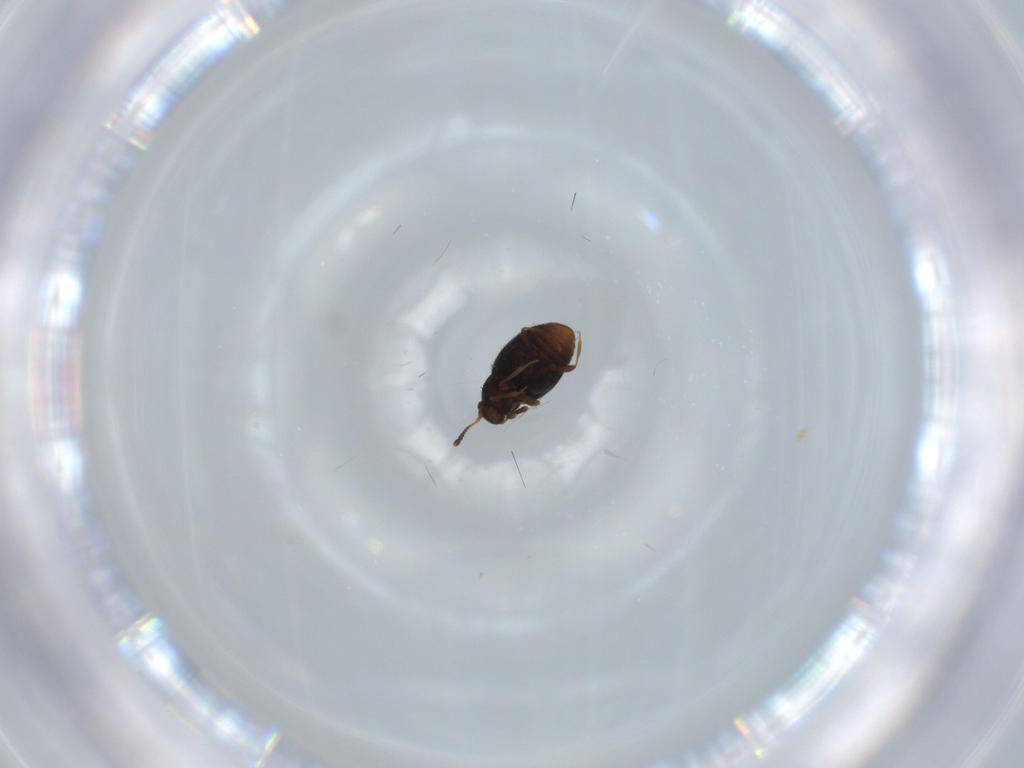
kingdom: Animalia
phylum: Arthropoda
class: Insecta
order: Coleoptera
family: Staphylinidae
